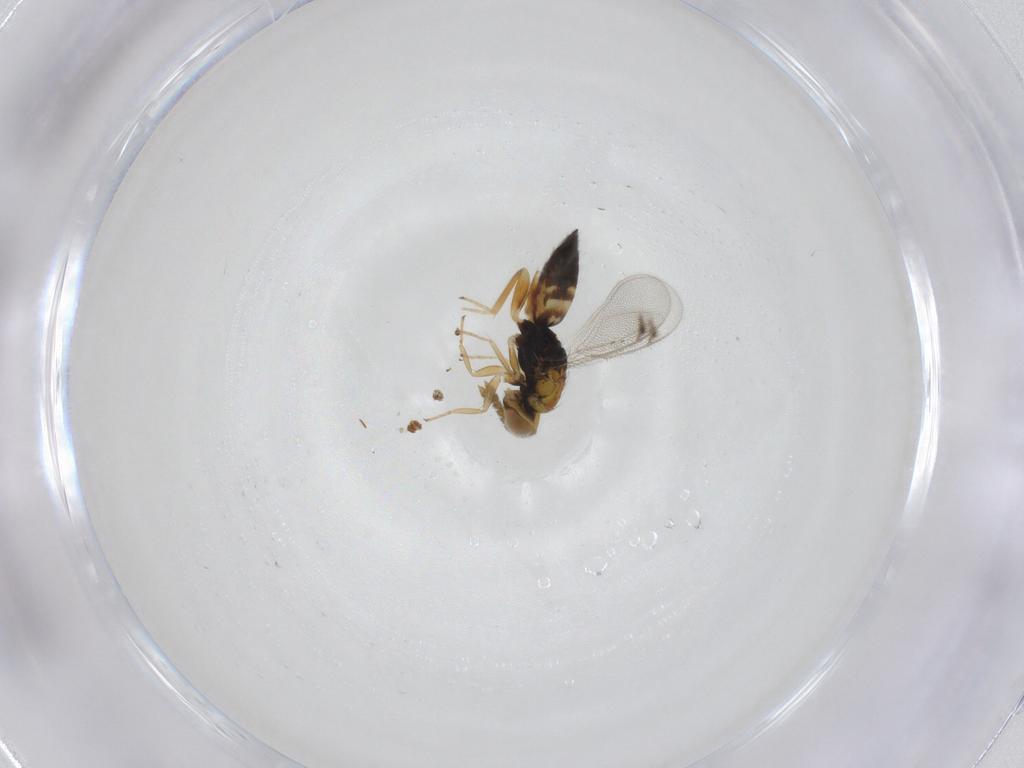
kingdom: Animalia
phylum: Arthropoda
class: Insecta
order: Hymenoptera
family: Eulophidae
